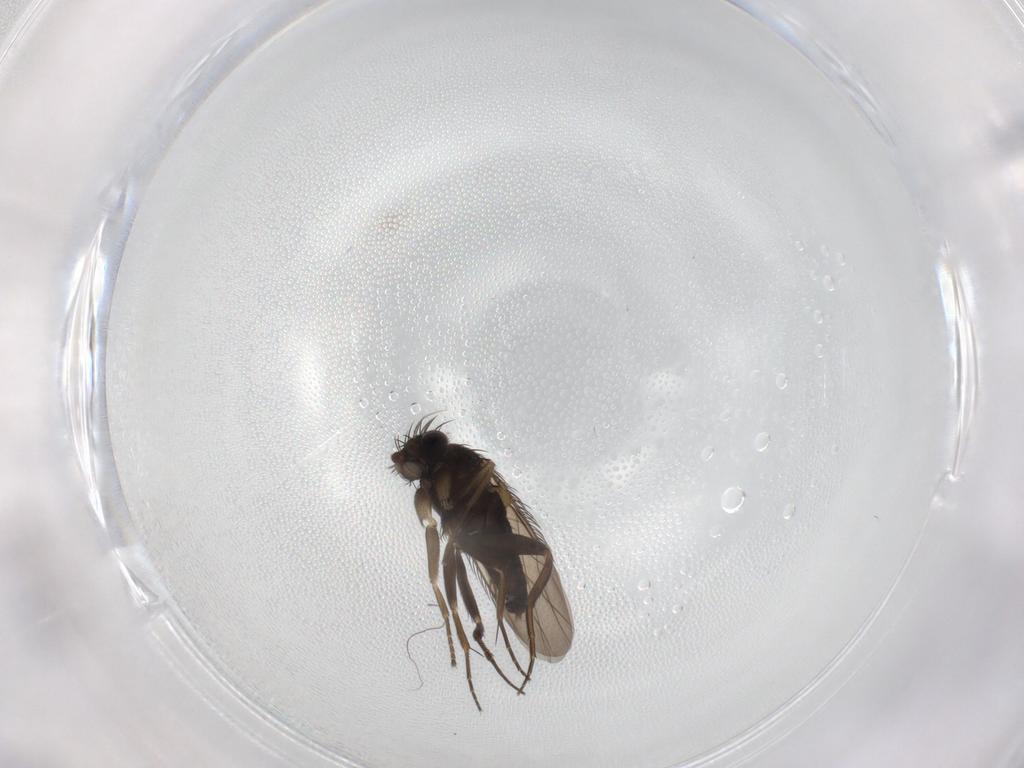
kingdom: Animalia
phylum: Arthropoda
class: Insecta
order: Diptera
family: Phoridae
